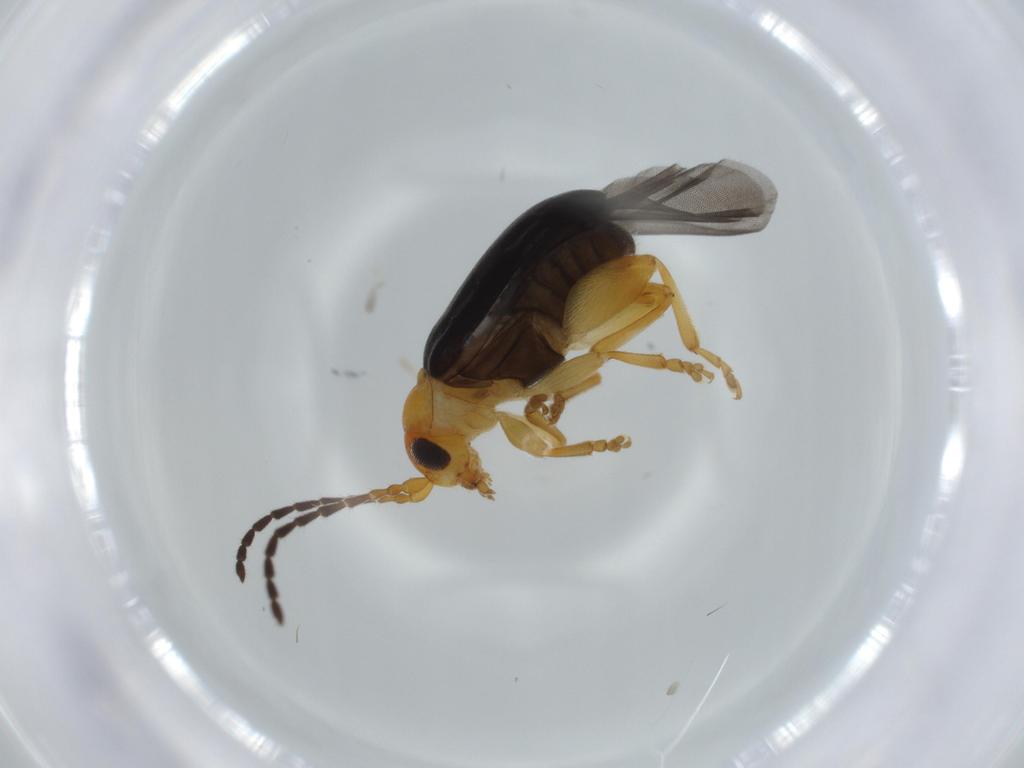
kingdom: Animalia
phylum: Arthropoda
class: Insecta
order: Coleoptera
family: Chrysomelidae
